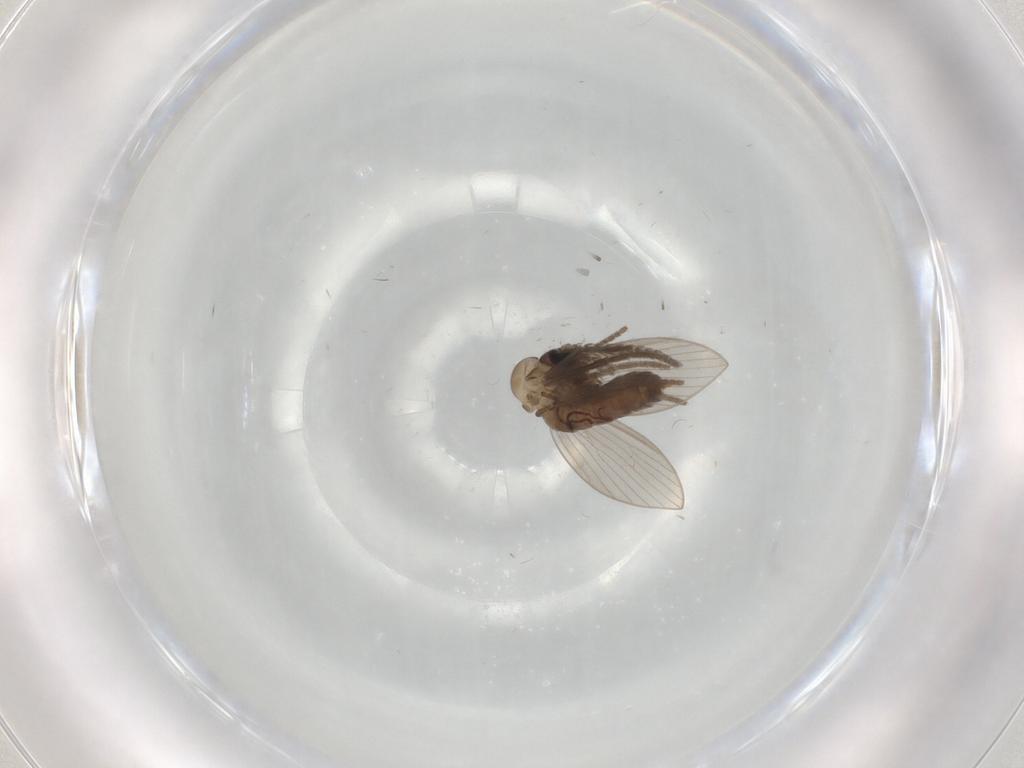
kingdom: Animalia
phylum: Arthropoda
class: Insecta
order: Diptera
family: Psychodidae
